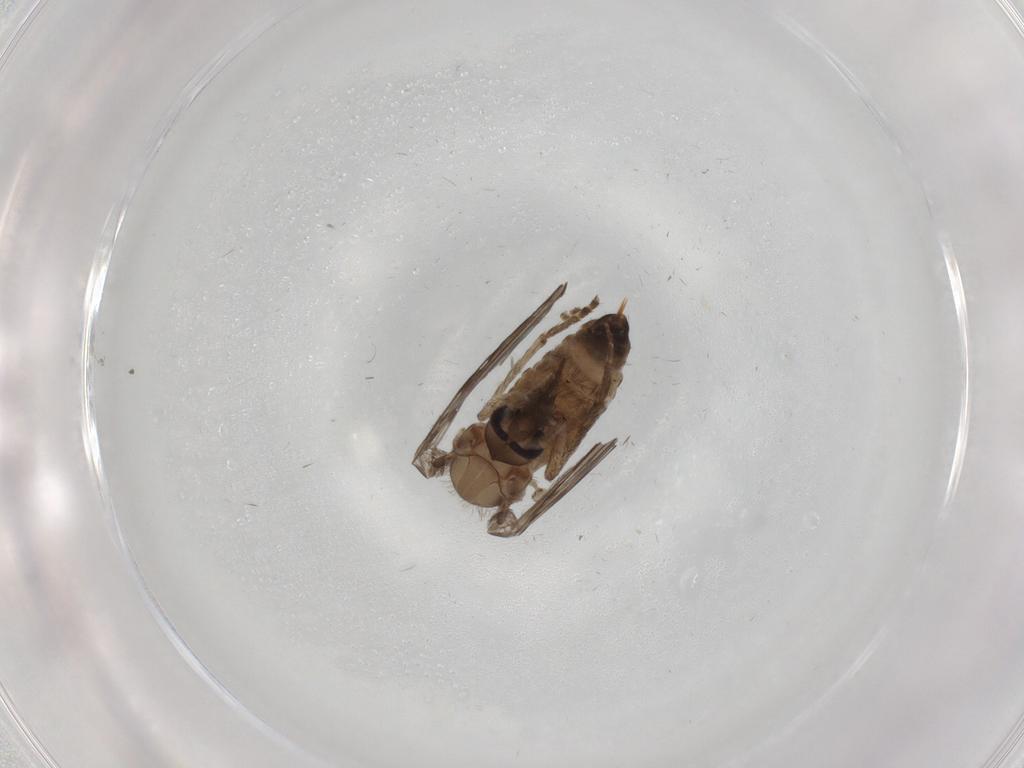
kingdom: Animalia
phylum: Arthropoda
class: Insecta
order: Diptera
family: Psychodidae
